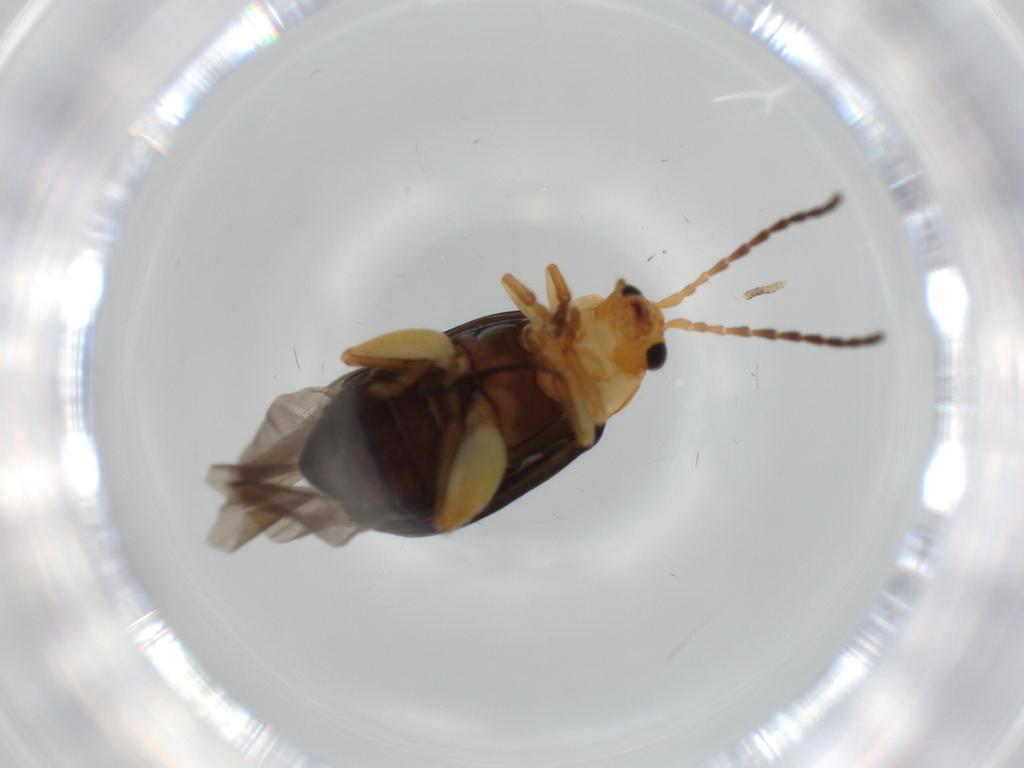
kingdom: Animalia
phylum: Arthropoda
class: Insecta
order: Coleoptera
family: Chrysomelidae
